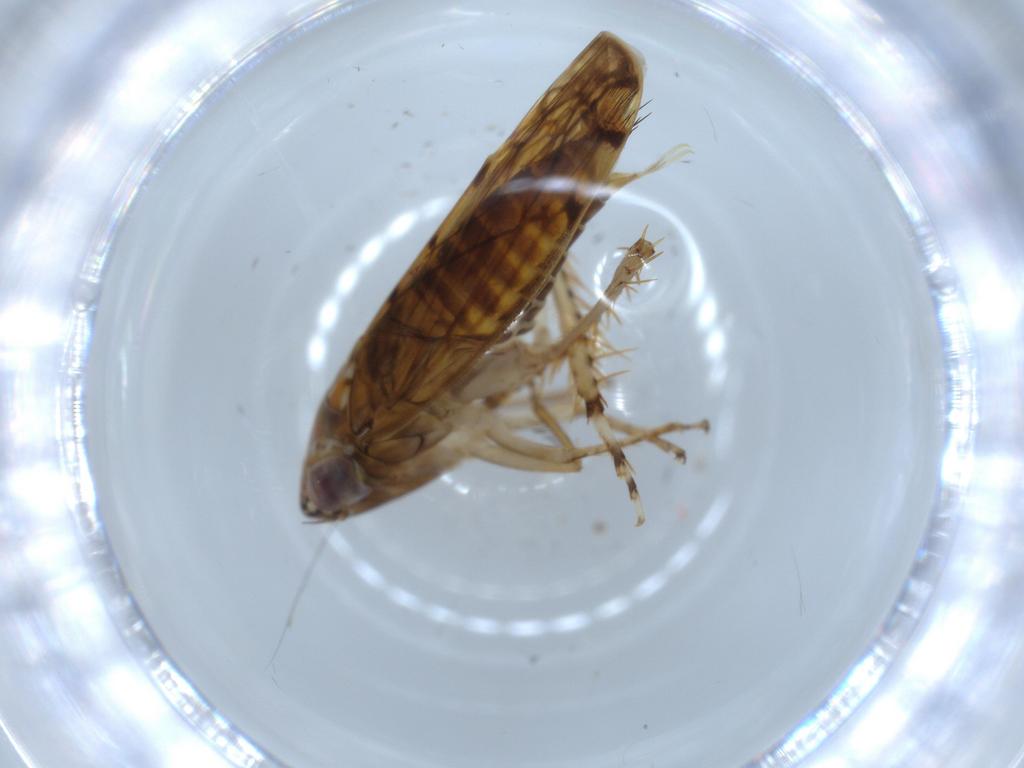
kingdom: Animalia
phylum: Arthropoda
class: Insecta
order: Hemiptera
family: Cicadellidae
